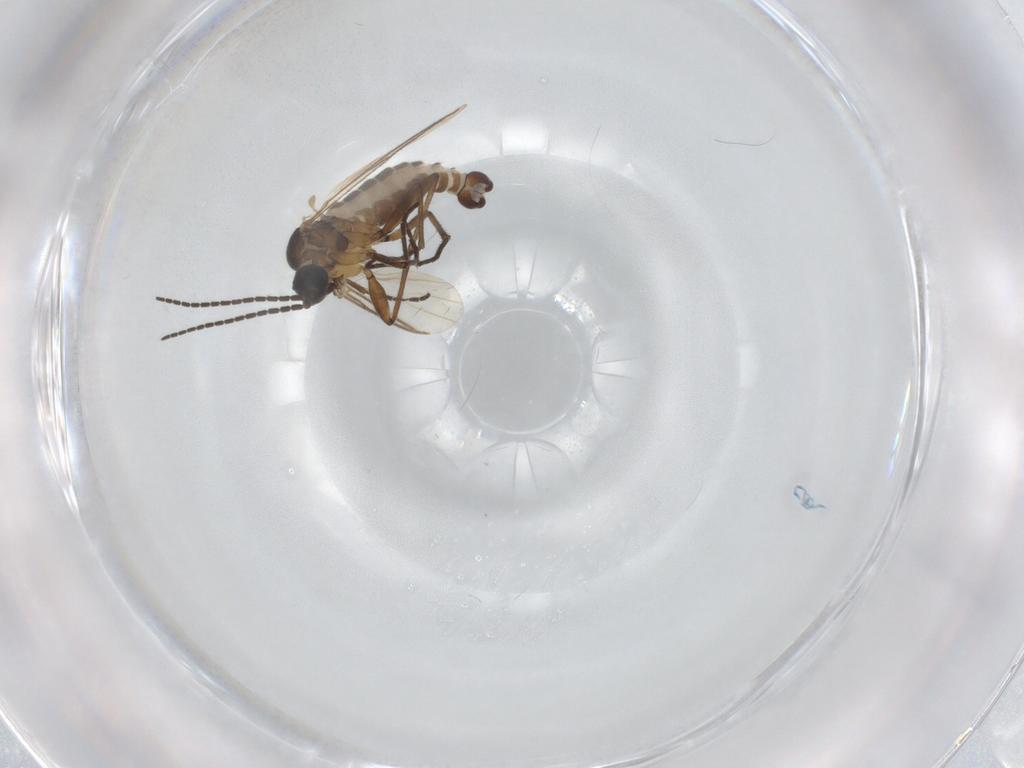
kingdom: Animalia
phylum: Arthropoda
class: Insecta
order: Diptera
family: Sciaridae
